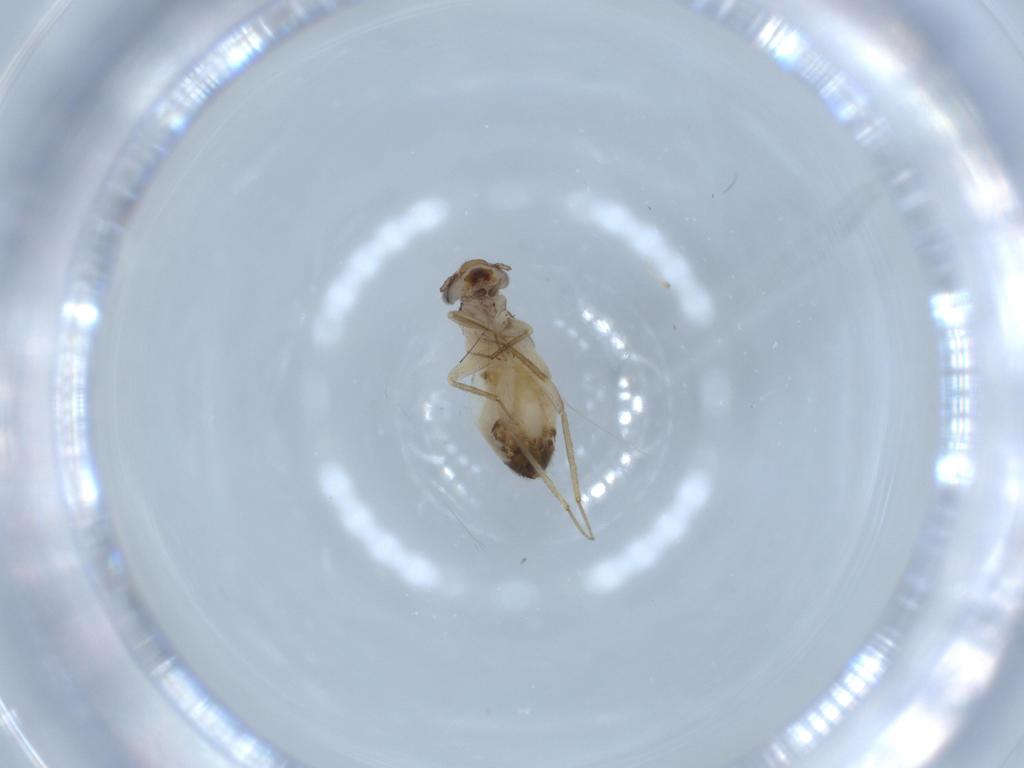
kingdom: Animalia
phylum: Arthropoda
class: Insecta
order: Psocodea
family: Lepidopsocidae
